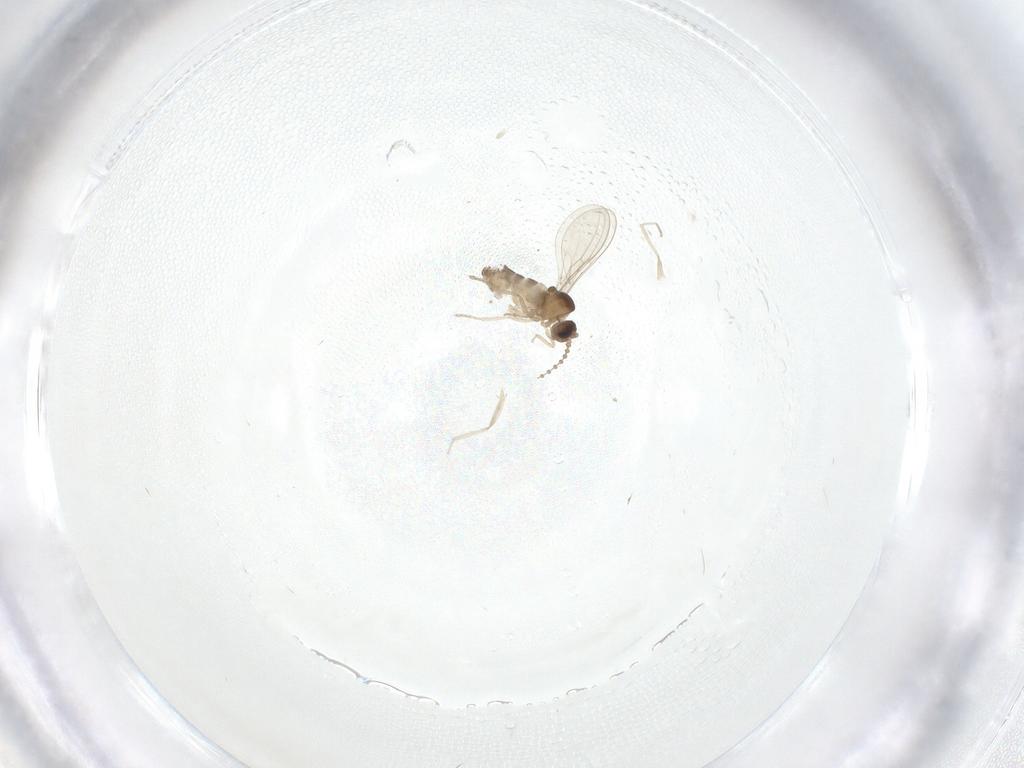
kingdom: Animalia
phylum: Arthropoda
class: Insecta
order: Diptera
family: Cecidomyiidae
